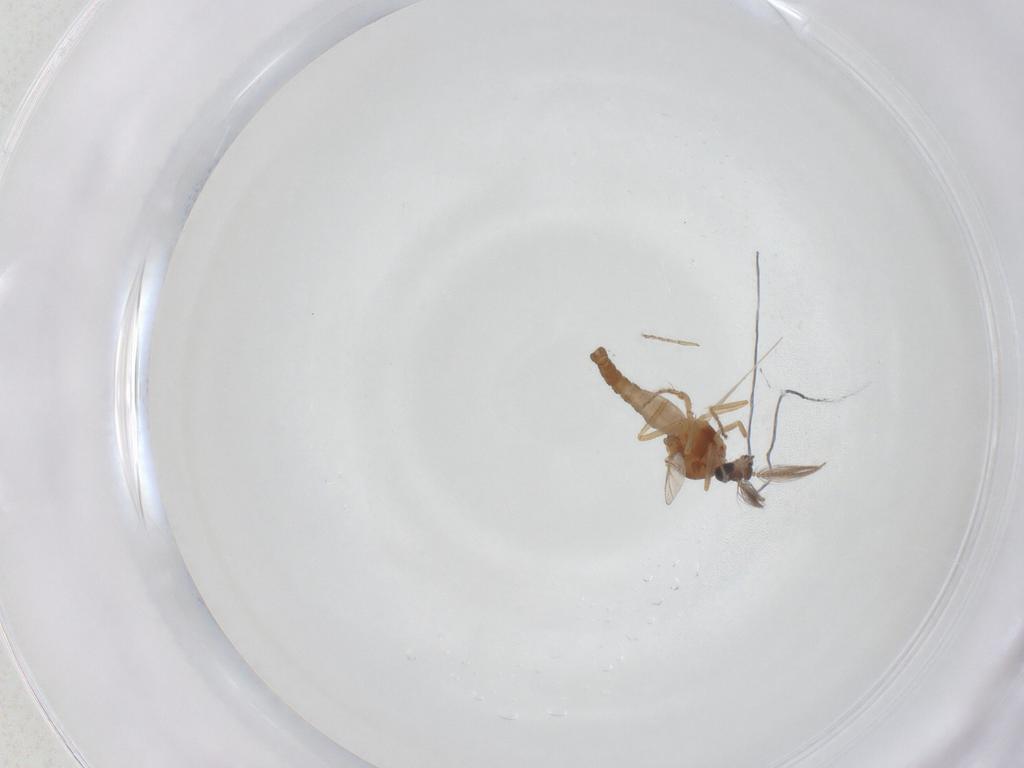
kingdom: Animalia
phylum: Arthropoda
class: Insecta
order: Diptera
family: Ceratopogonidae
